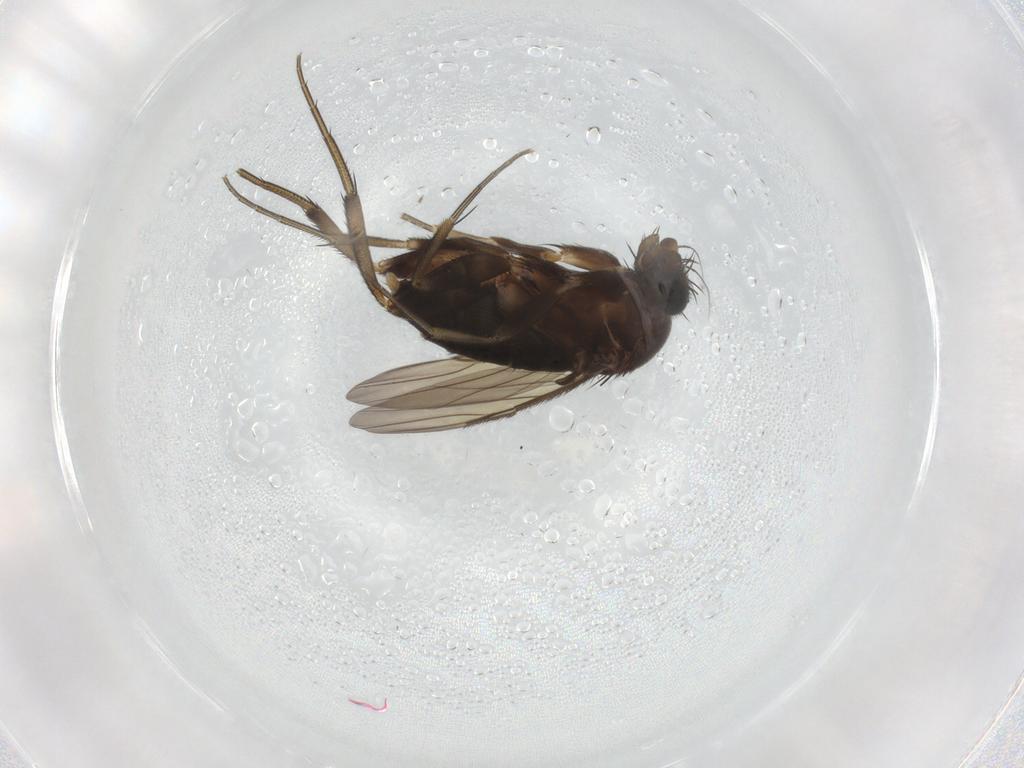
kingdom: Animalia
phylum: Arthropoda
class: Insecta
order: Diptera
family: Phoridae
